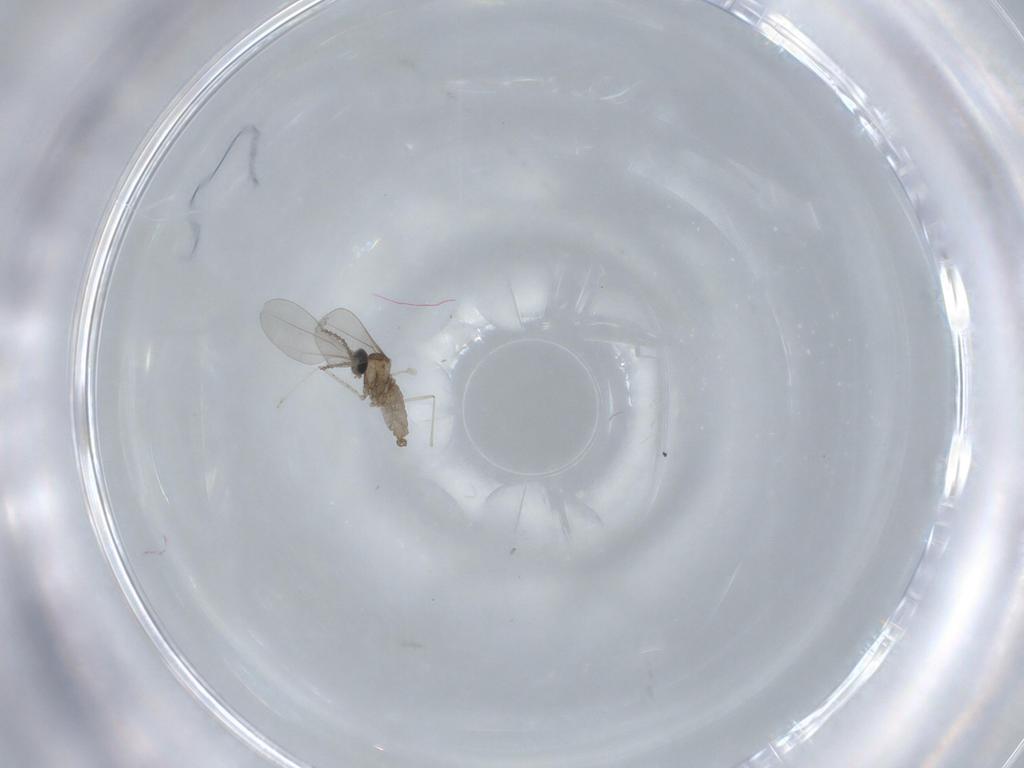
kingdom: Animalia
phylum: Arthropoda
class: Insecta
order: Diptera
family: Cecidomyiidae
